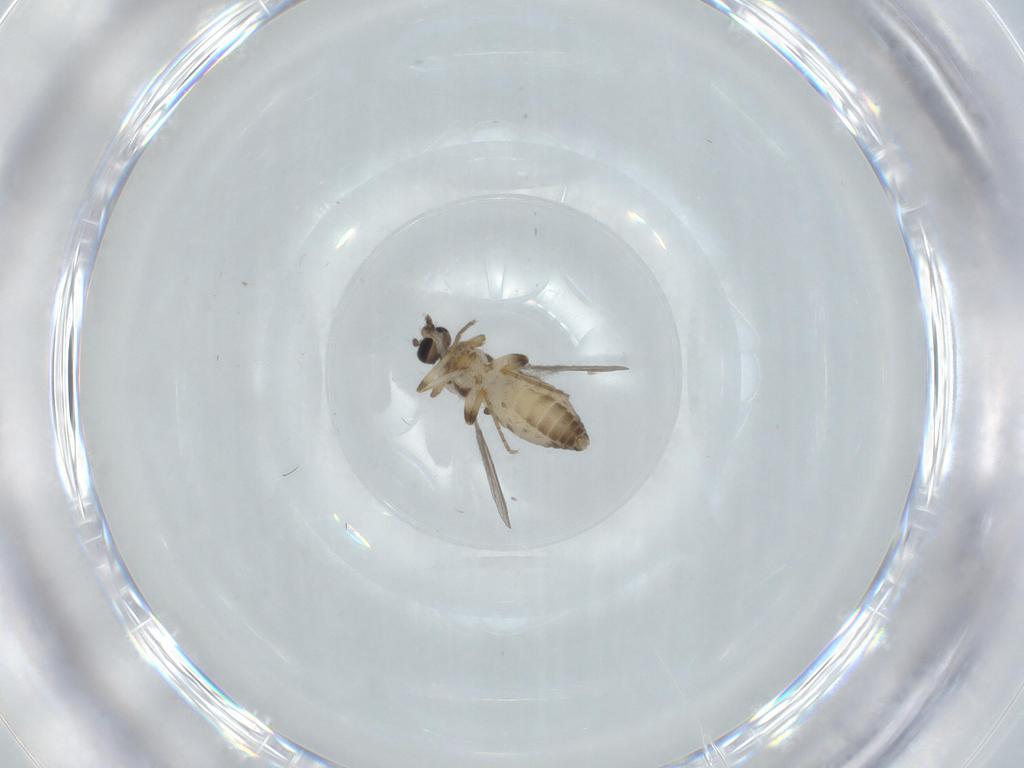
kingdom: Animalia
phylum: Arthropoda
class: Insecta
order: Diptera
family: Ceratopogonidae
